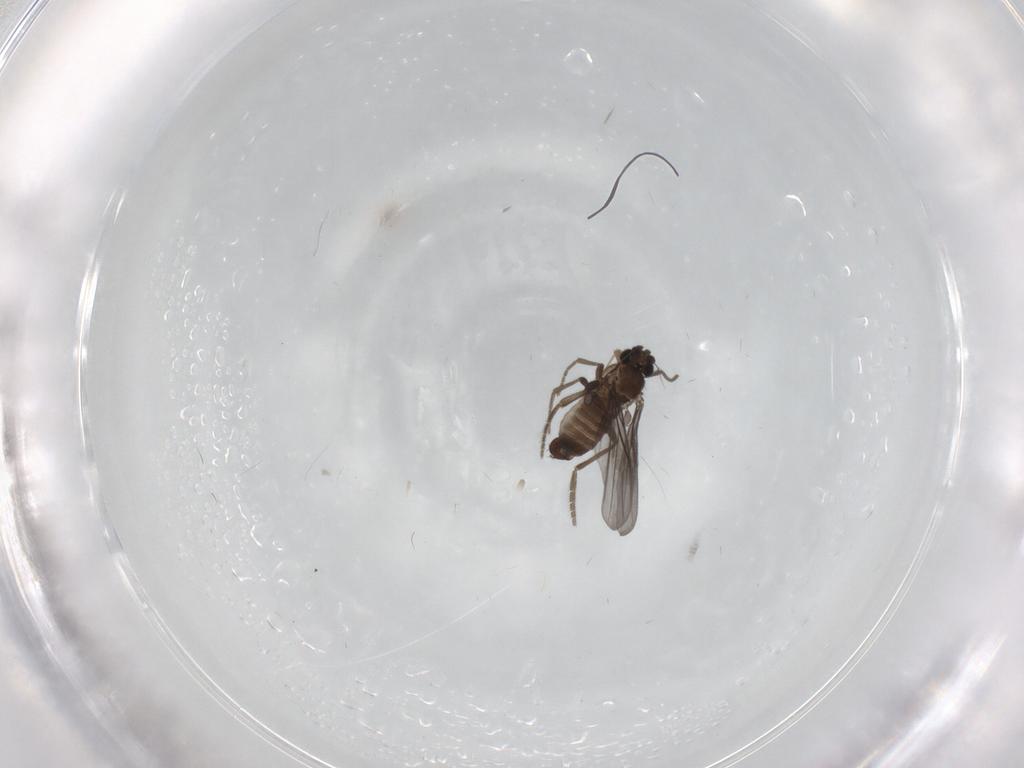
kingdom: Animalia
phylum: Arthropoda
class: Insecta
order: Diptera
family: Phoridae
